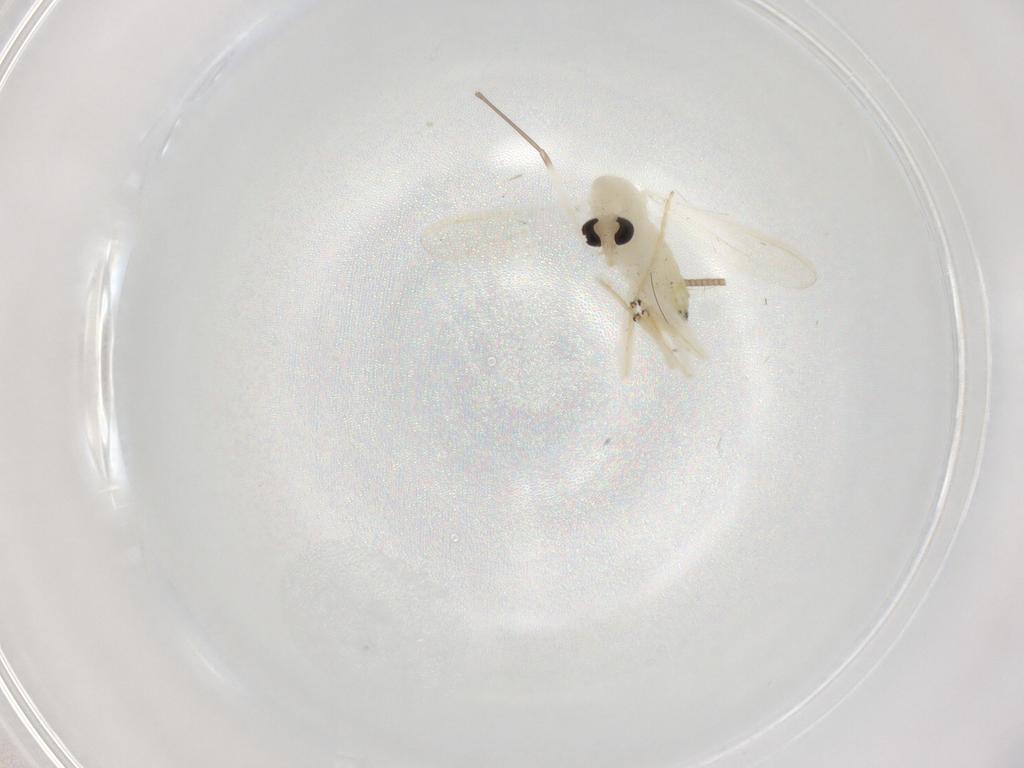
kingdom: Animalia
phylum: Arthropoda
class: Insecta
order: Diptera
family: Chironomidae
